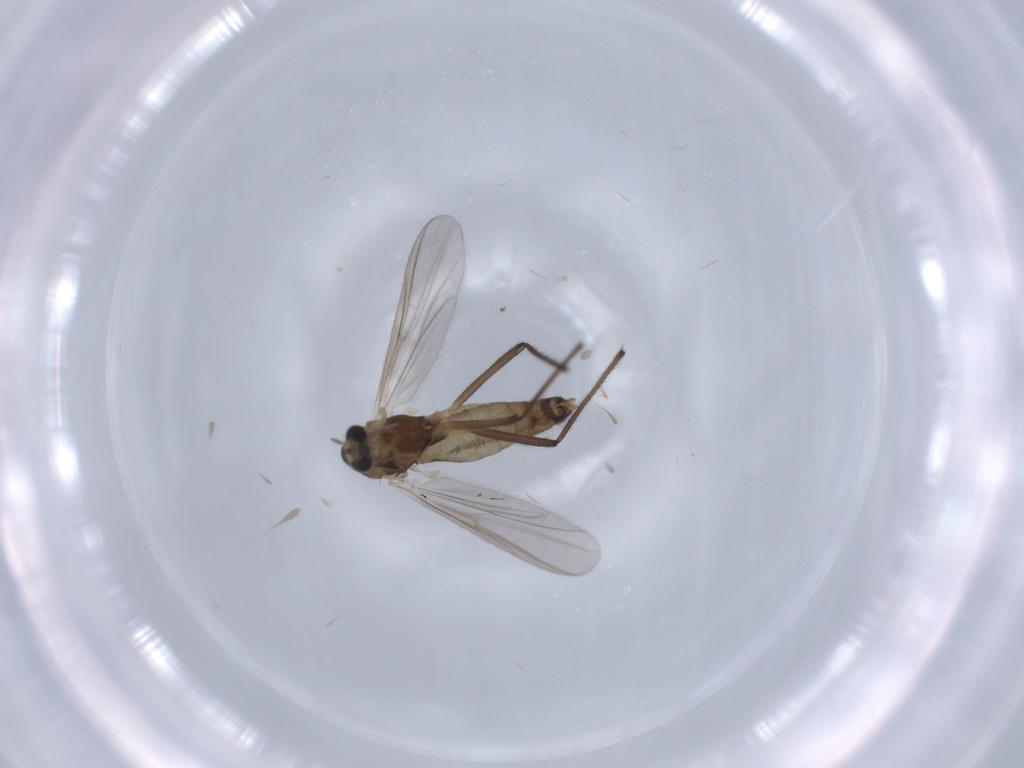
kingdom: Animalia
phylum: Arthropoda
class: Insecta
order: Diptera
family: Chironomidae
